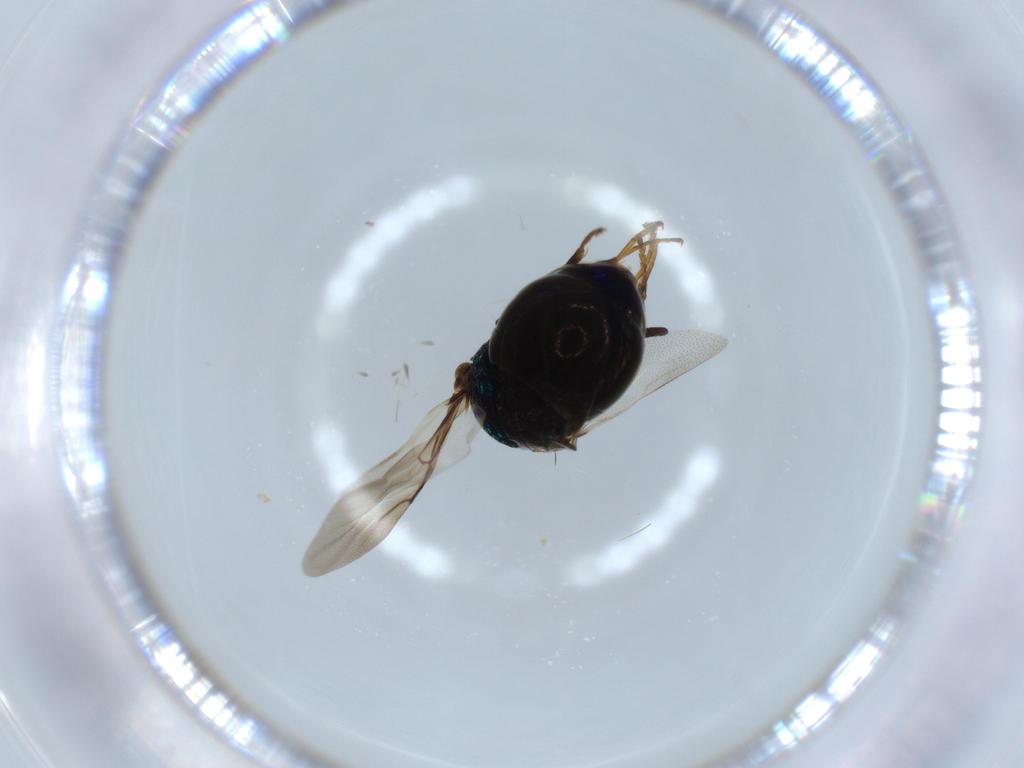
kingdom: Animalia
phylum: Arthropoda
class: Insecta
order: Hymenoptera
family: Chrysididae
